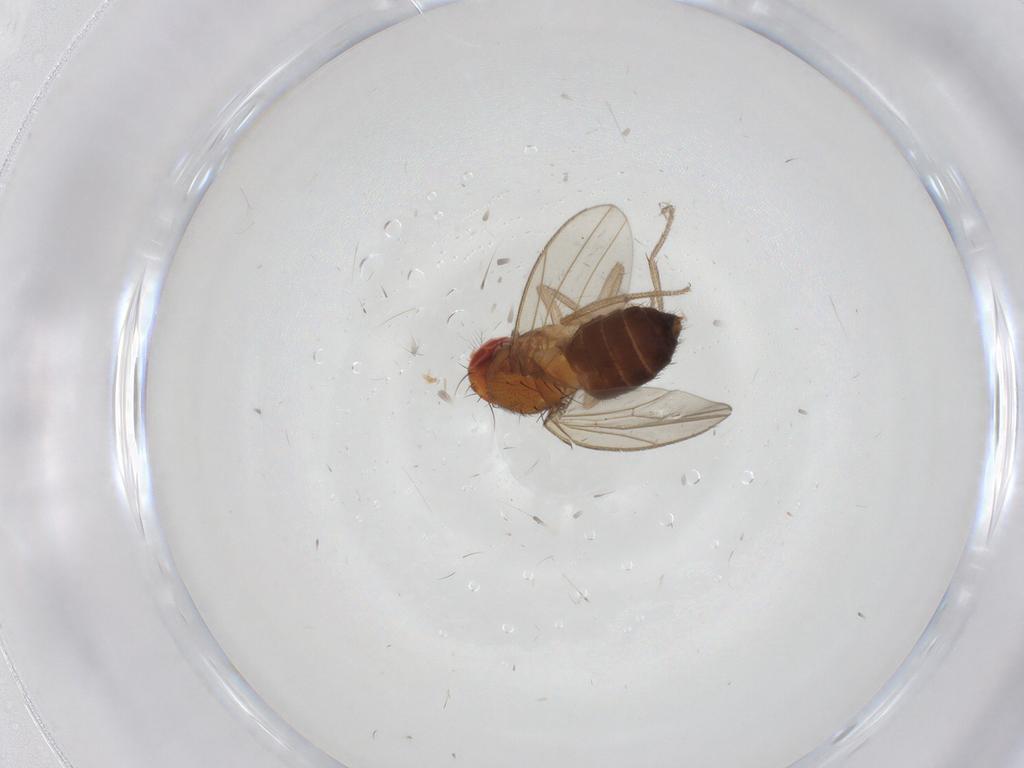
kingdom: Animalia
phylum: Arthropoda
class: Insecta
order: Diptera
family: Drosophilidae
